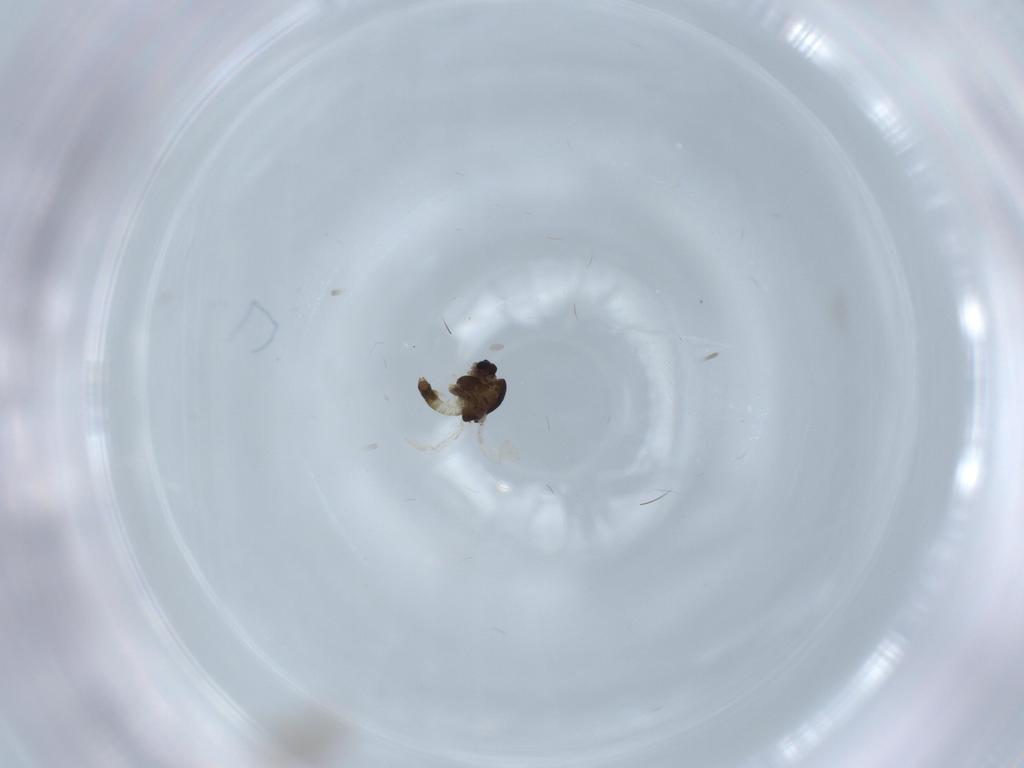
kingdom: Animalia
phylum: Arthropoda
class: Insecta
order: Diptera
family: Chironomidae
